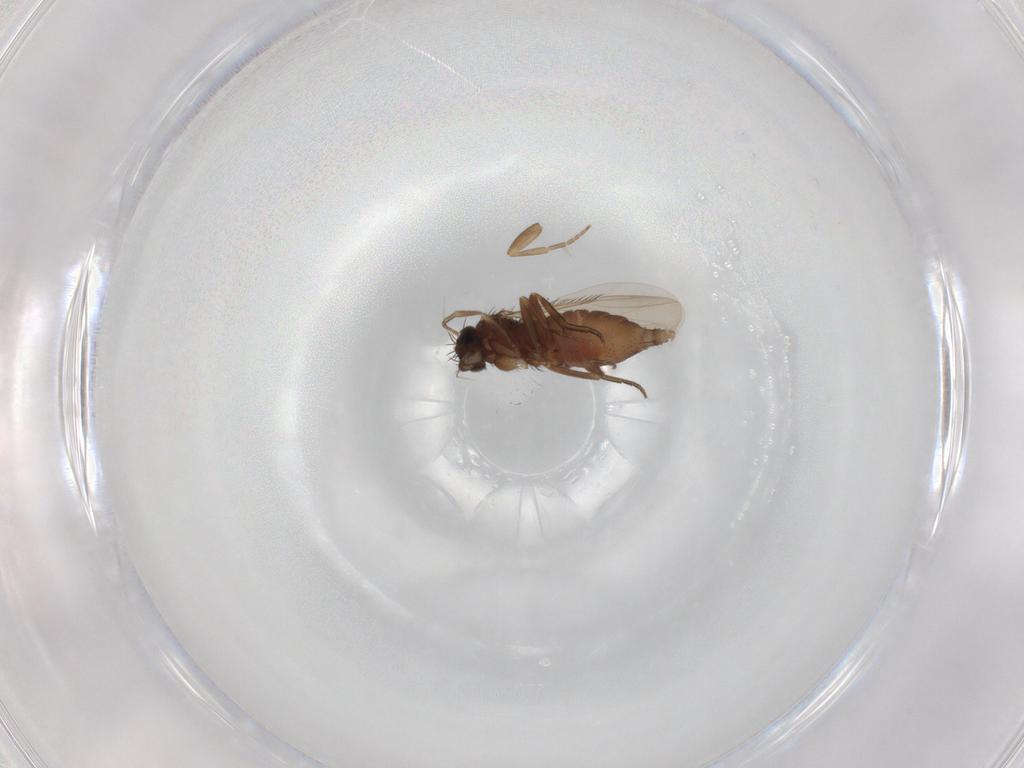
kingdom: Animalia
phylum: Arthropoda
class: Insecta
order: Diptera
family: Chloropidae
